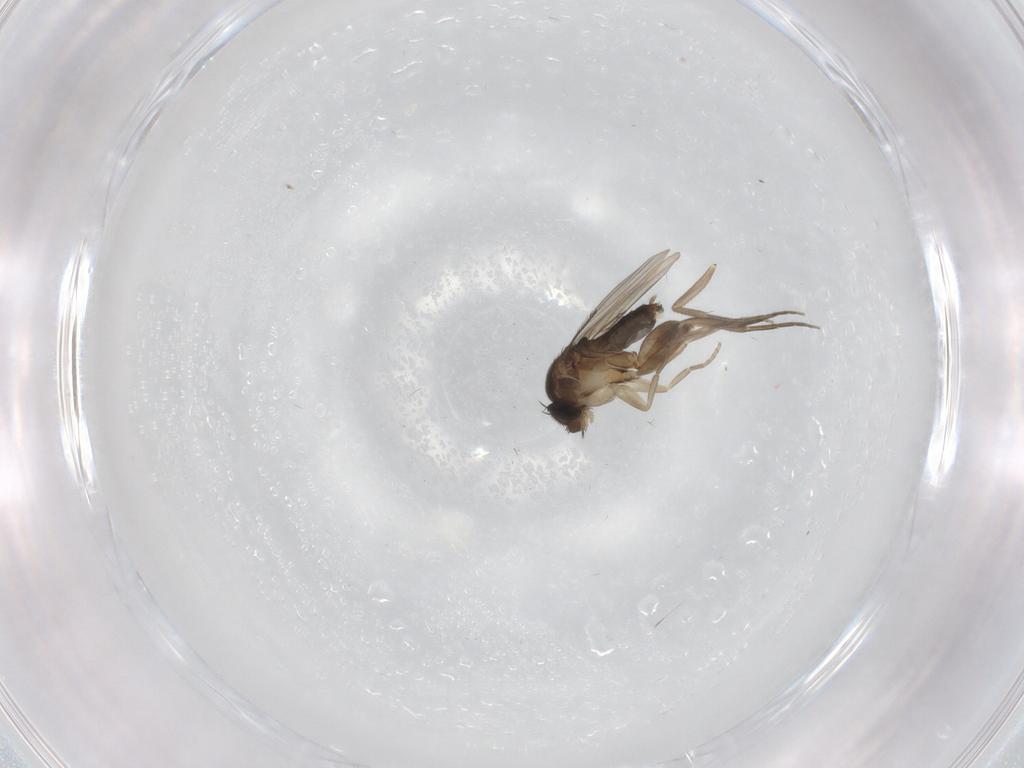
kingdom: Animalia
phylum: Arthropoda
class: Insecta
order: Diptera
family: Phoridae
